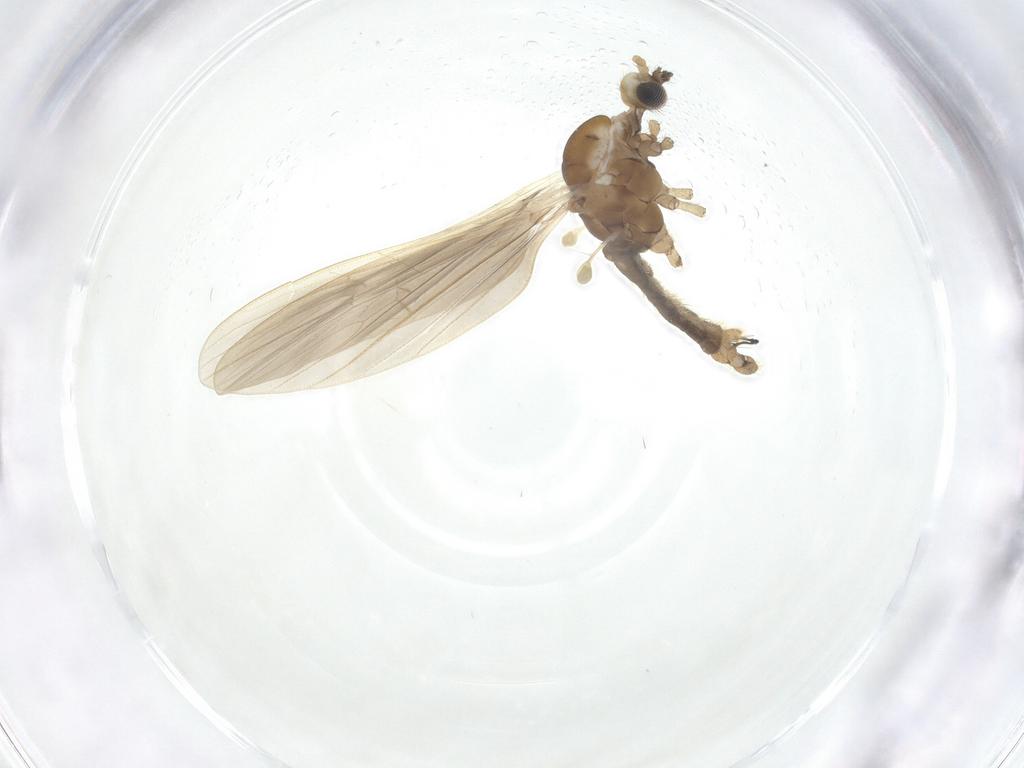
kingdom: Animalia
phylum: Arthropoda
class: Insecta
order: Diptera
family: Limoniidae
